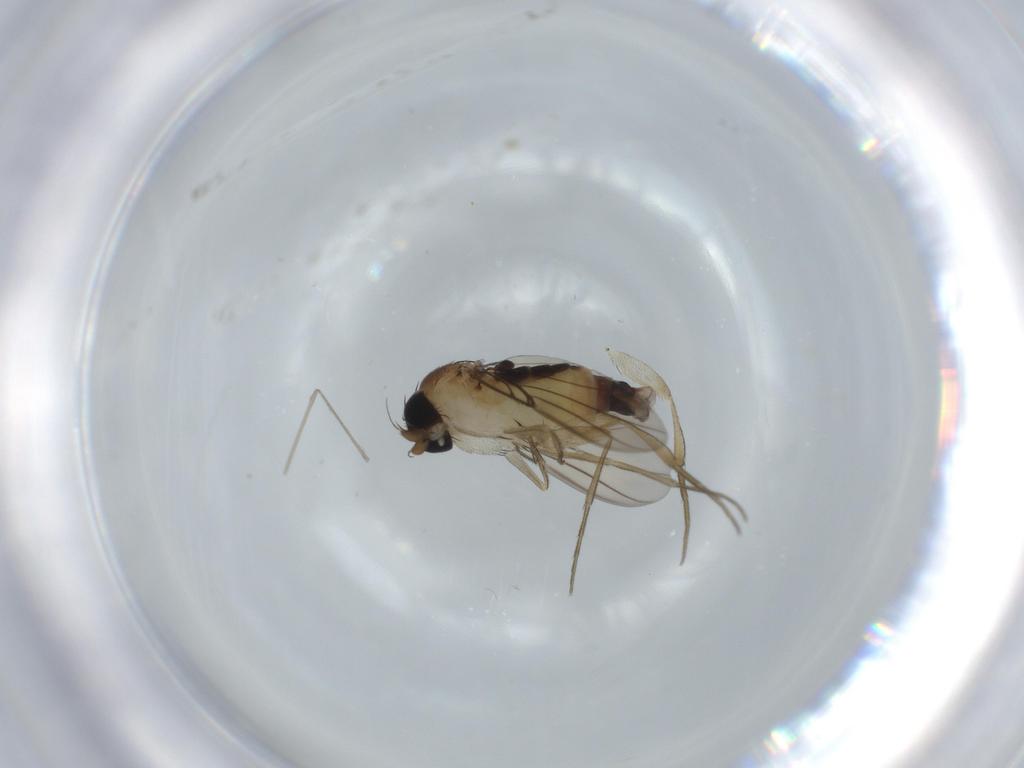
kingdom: Animalia
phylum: Arthropoda
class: Insecta
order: Diptera
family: Phoridae
